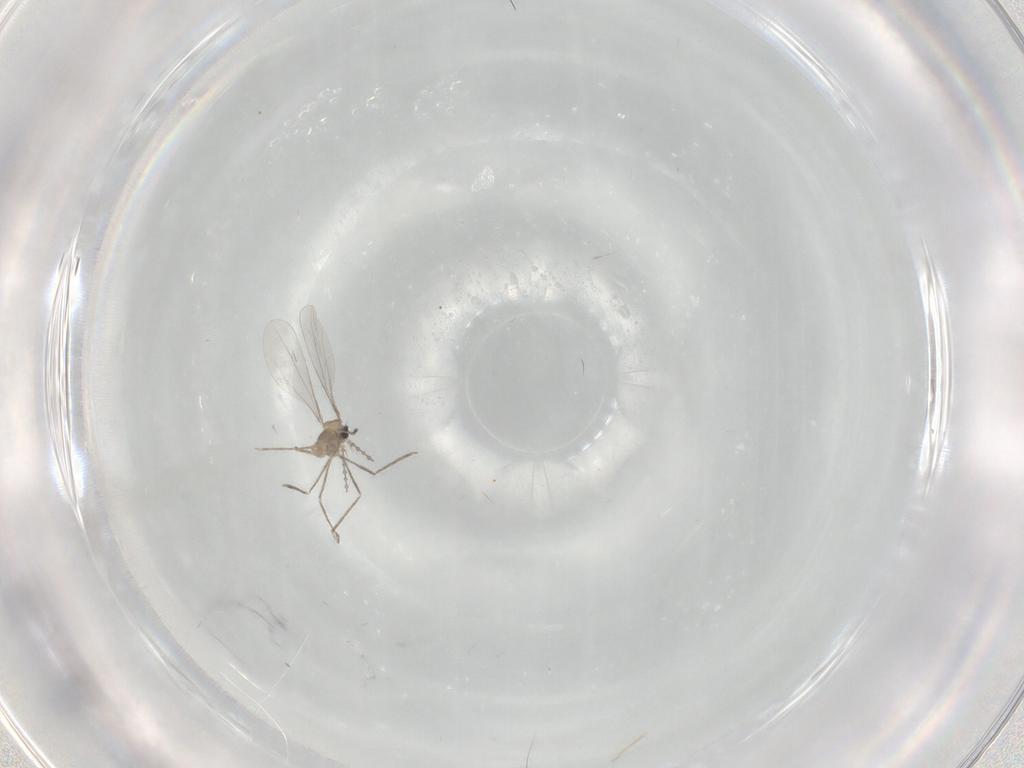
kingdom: Animalia
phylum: Arthropoda
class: Insecta
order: Diptera
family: Cecidomyiidae
